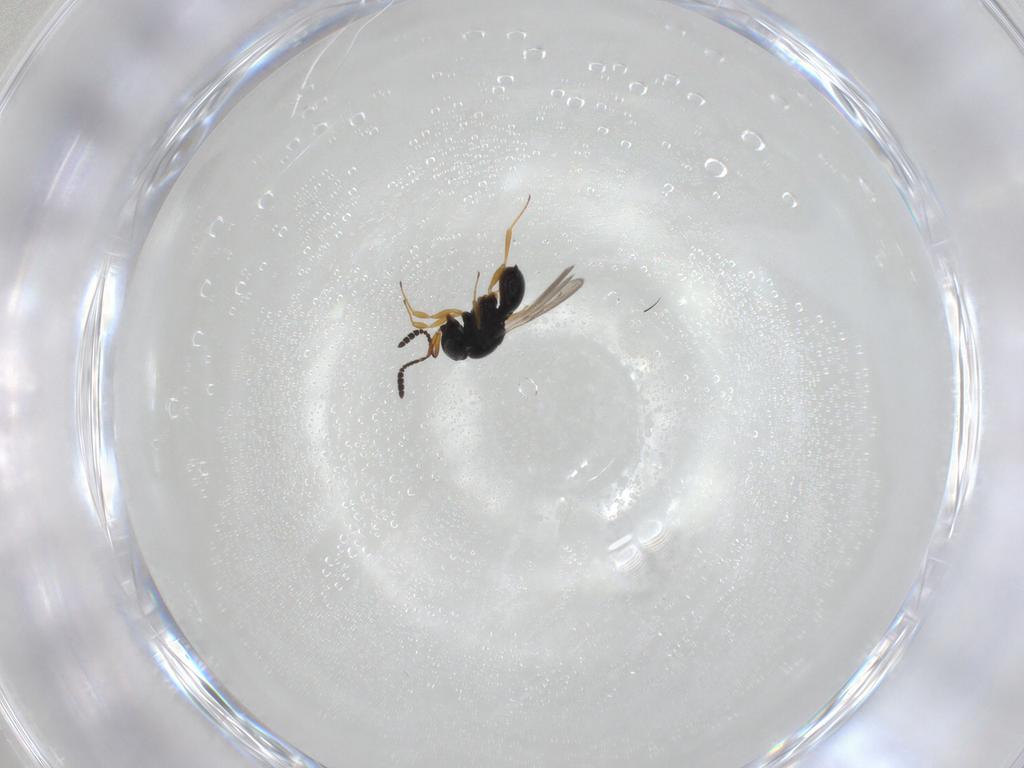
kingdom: Animalia
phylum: Arthropoda
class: Insecta
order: Hymenoptera
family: Scelionidae
